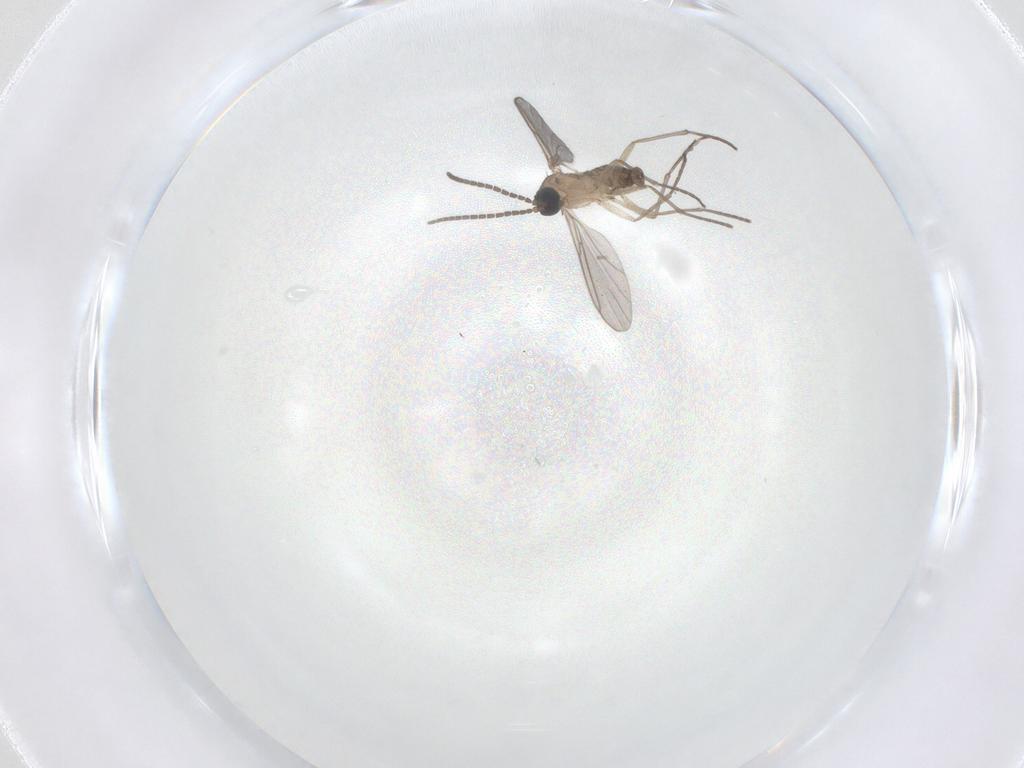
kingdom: Animalia
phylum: Arthropoda
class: Insecta
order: Diptera
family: Sciaridae
